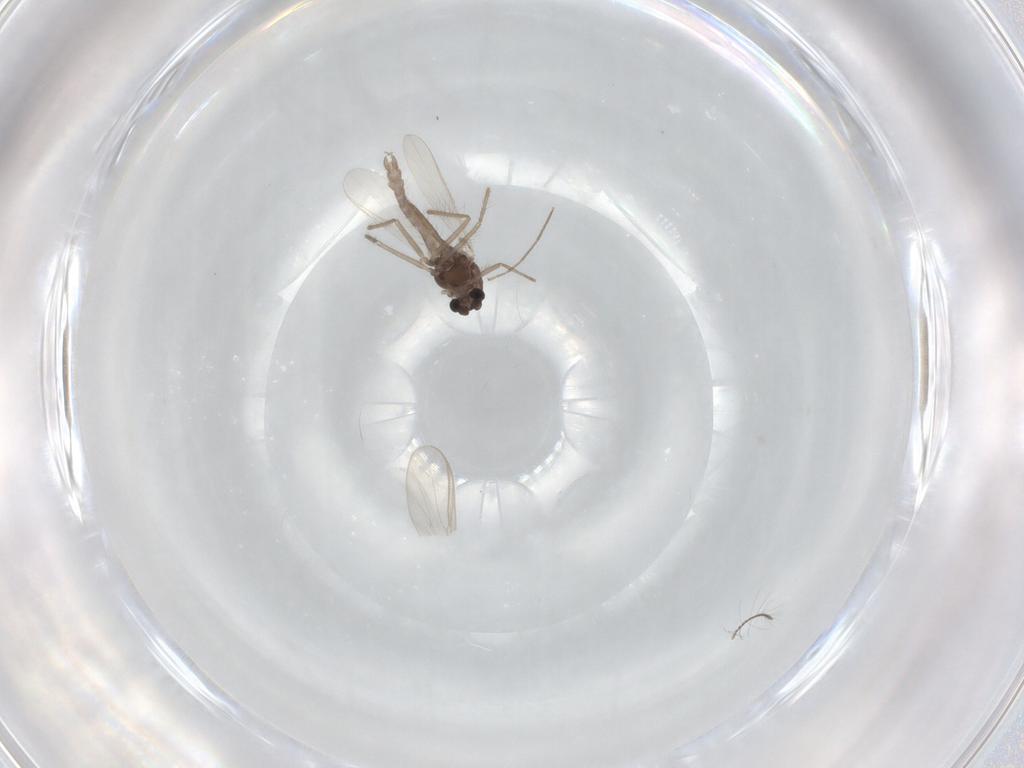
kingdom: Animalia
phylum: Arthropoda
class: Insecta
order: Diptera
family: Chironomidae
